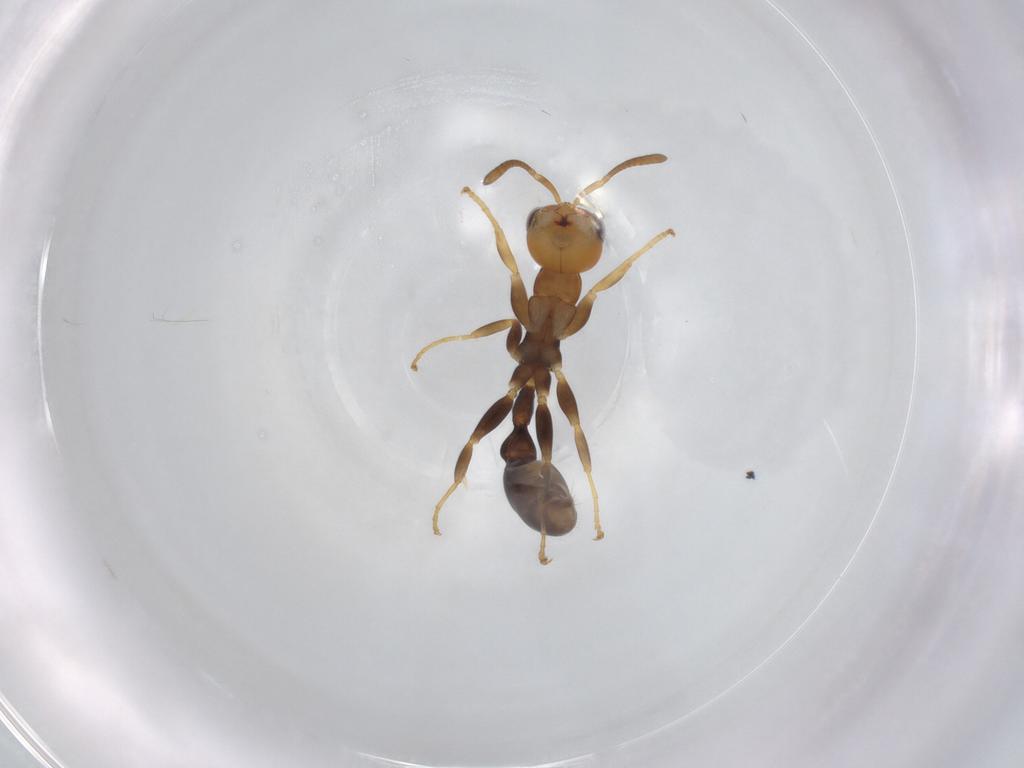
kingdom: Animalia
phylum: Arthropoda
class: Insecta
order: Hymenoptera
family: Formicidae
